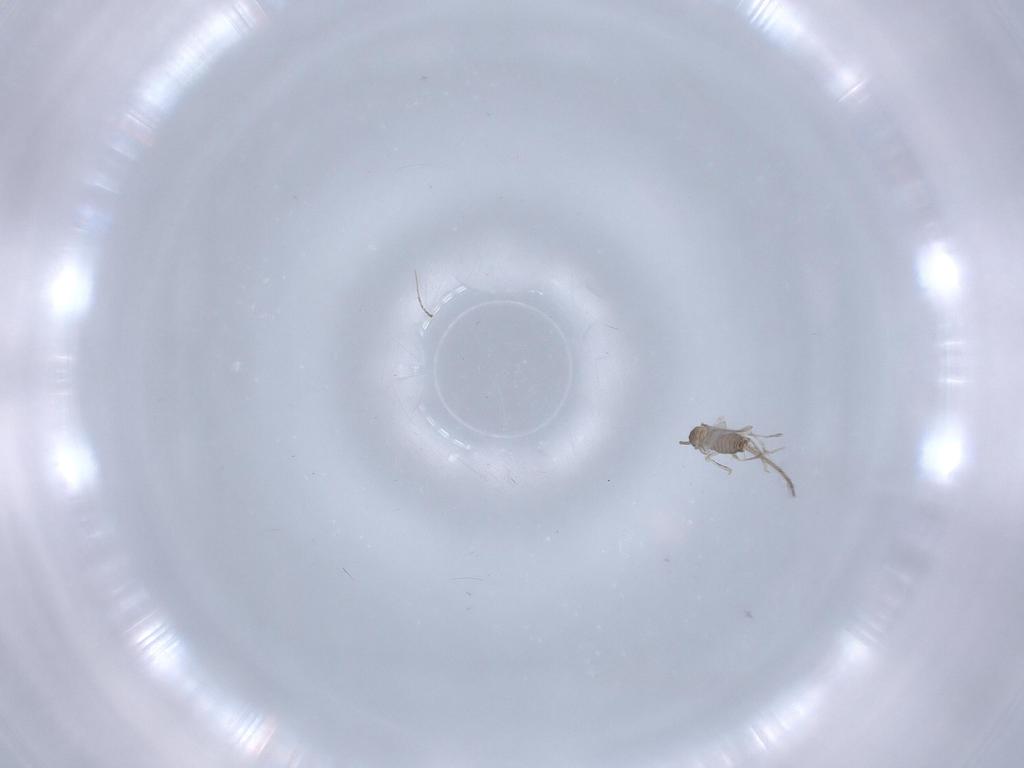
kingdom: Animalia
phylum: Arthropoda
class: Insecta
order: Diptera
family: Chironomidae
